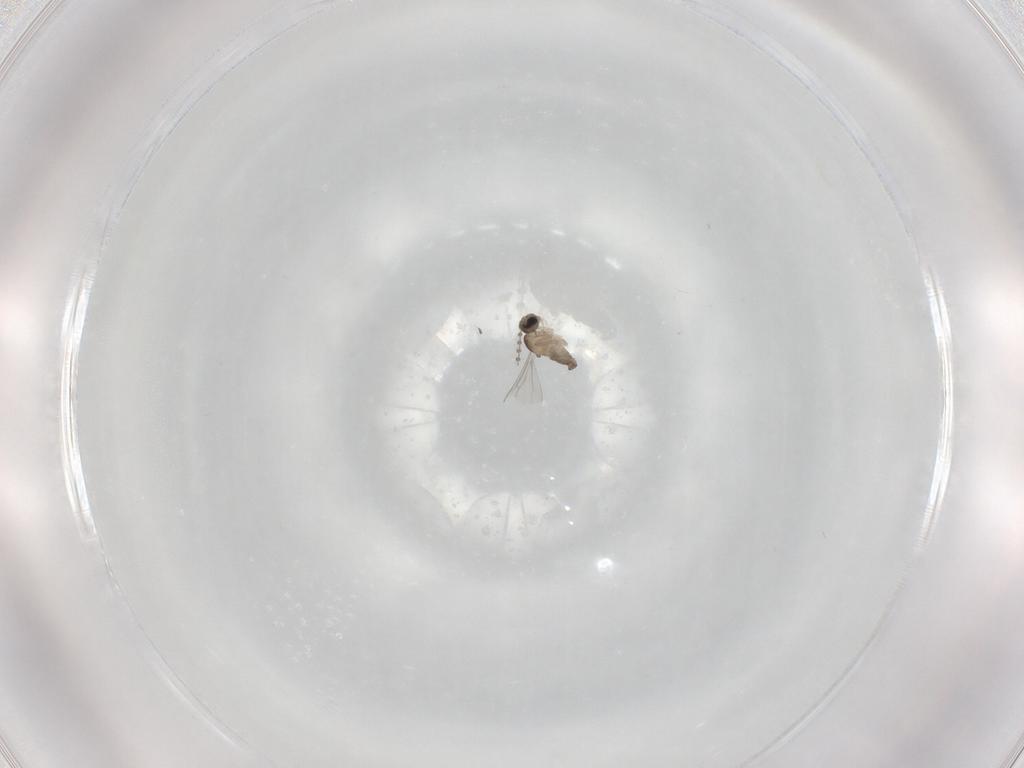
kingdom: Animalia
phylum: Arthropoda
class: Insecta
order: Diptera
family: Cecidomyiidae
